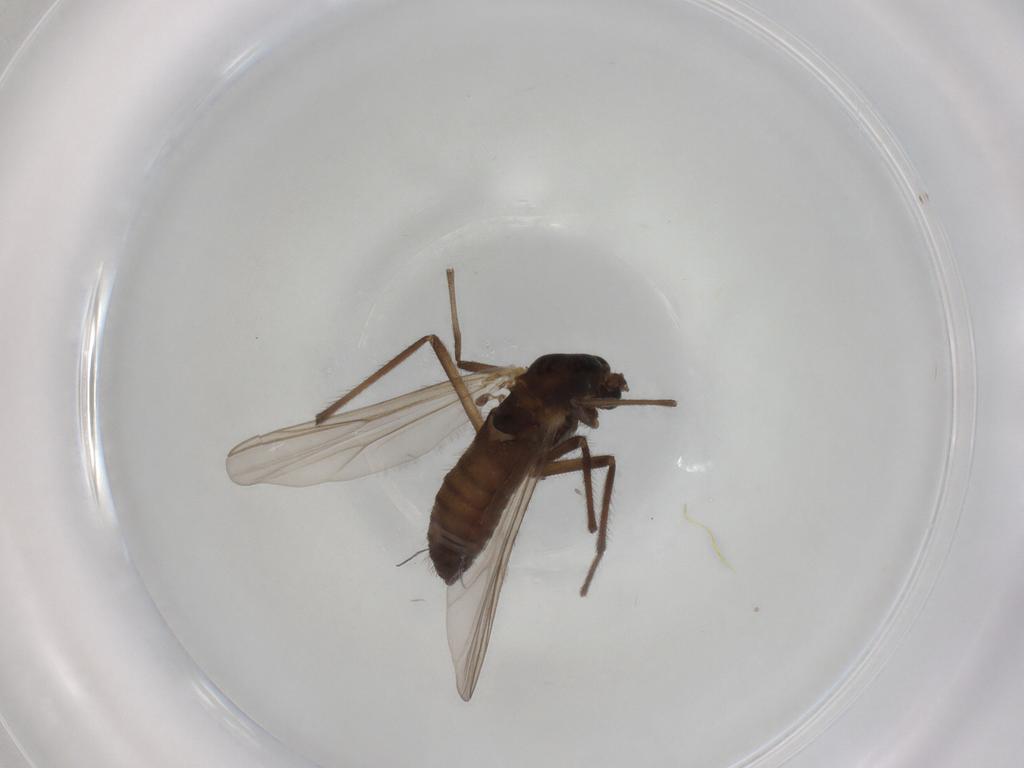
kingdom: Animalia
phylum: Arthropoda
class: Insecta
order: Diptera
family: Chironomidae
